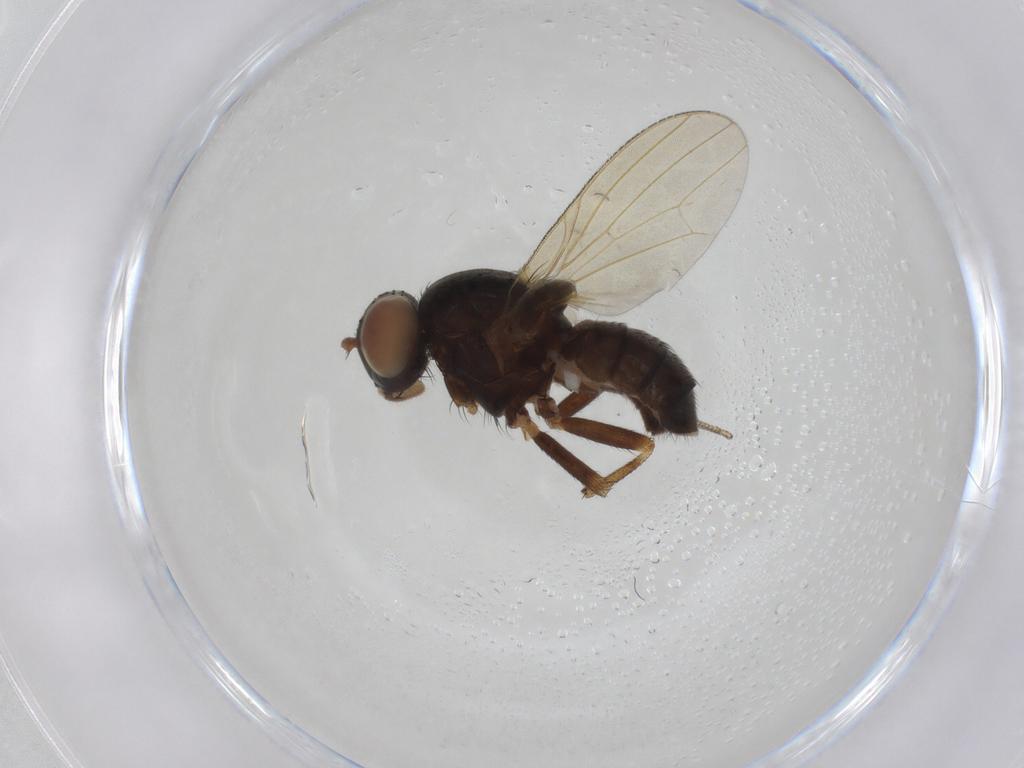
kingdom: Animalia
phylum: Arthropoda
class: Insecta
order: Diptera
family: Lauxaniidae
